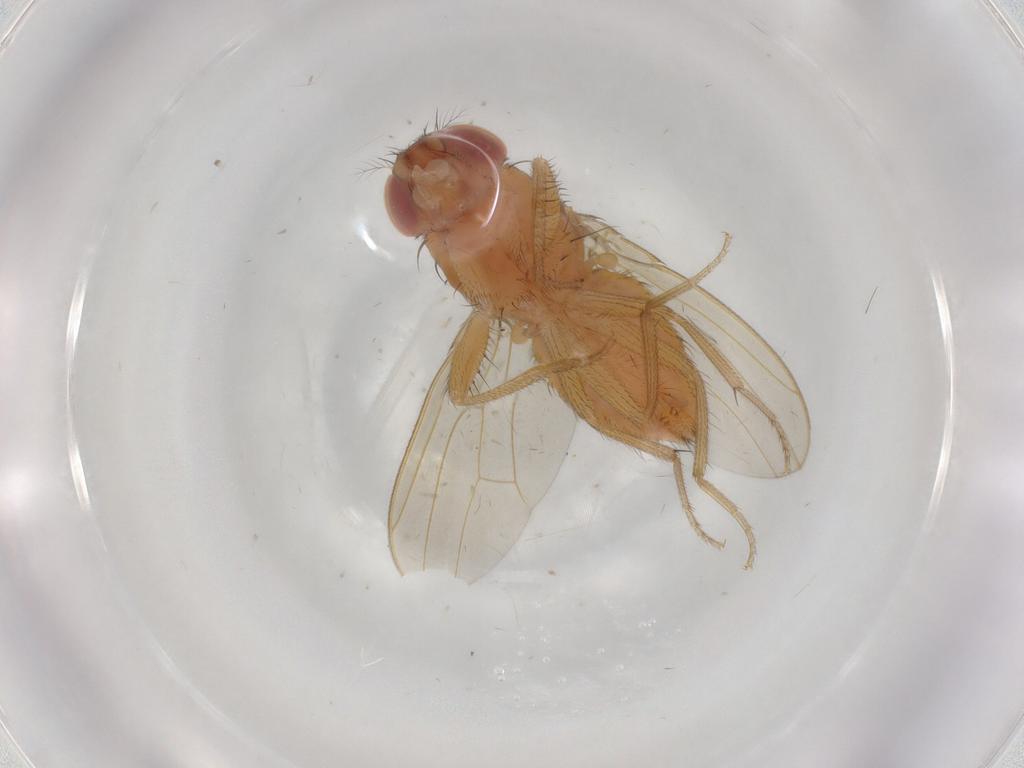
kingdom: Animalia
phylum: Arthropoda
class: Insecta
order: Diptera
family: Drosophilidae
